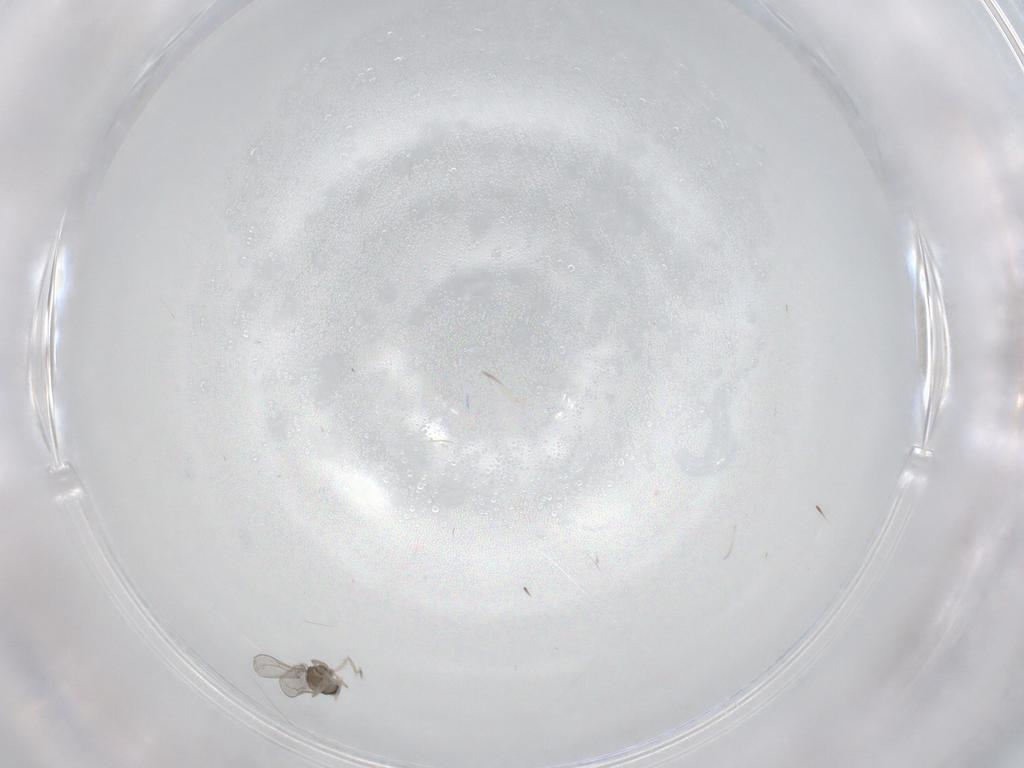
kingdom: Animalia
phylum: Arthropoda
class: Insecta
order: Diptera
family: Cecidomyiidae
